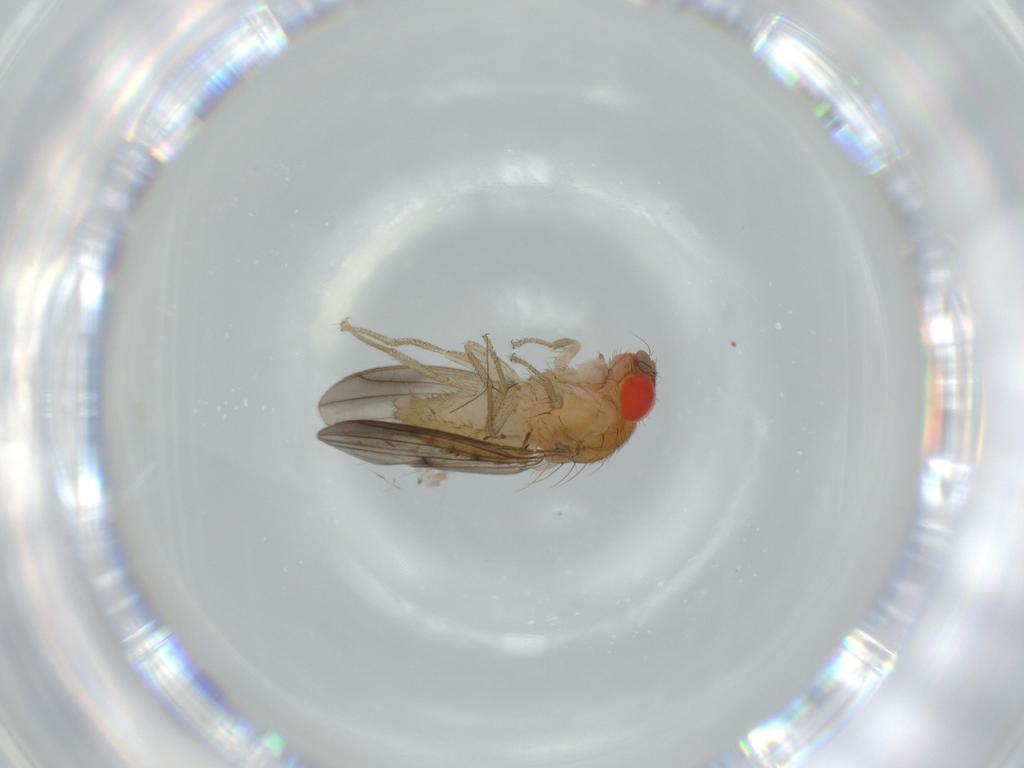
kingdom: Animalia
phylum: Arthropoda
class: Insecta
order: Diptera
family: Drosophilidae
